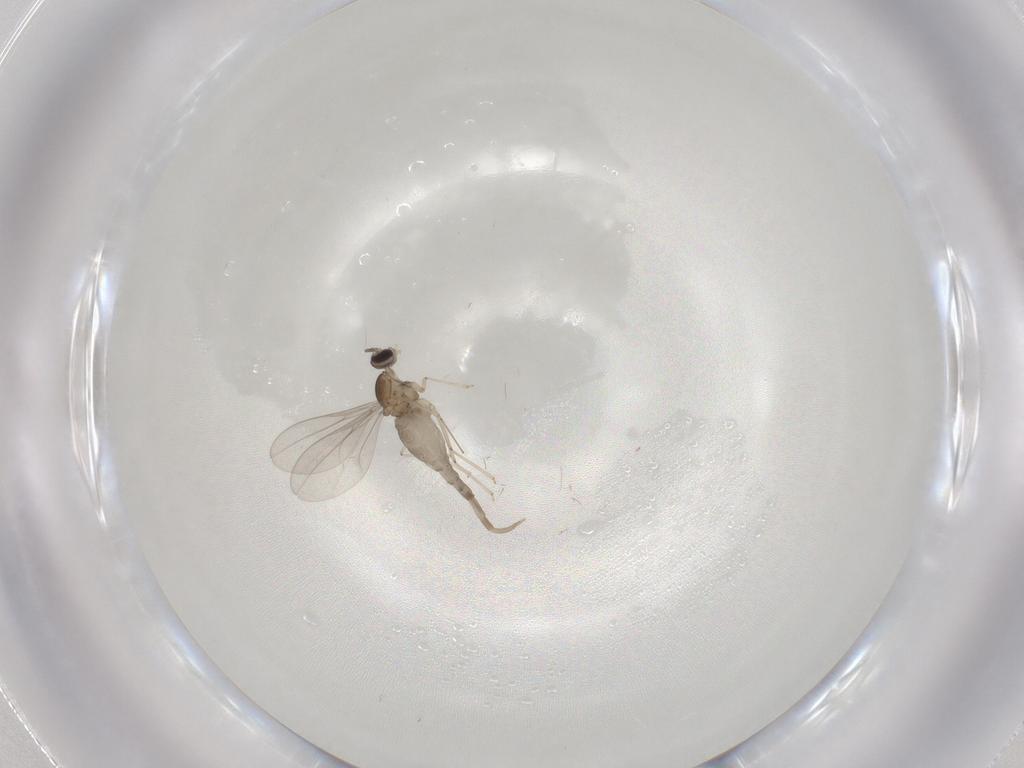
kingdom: Animalia
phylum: Arthropoda
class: Insecta
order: Diptera
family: Cecidomyiidae
